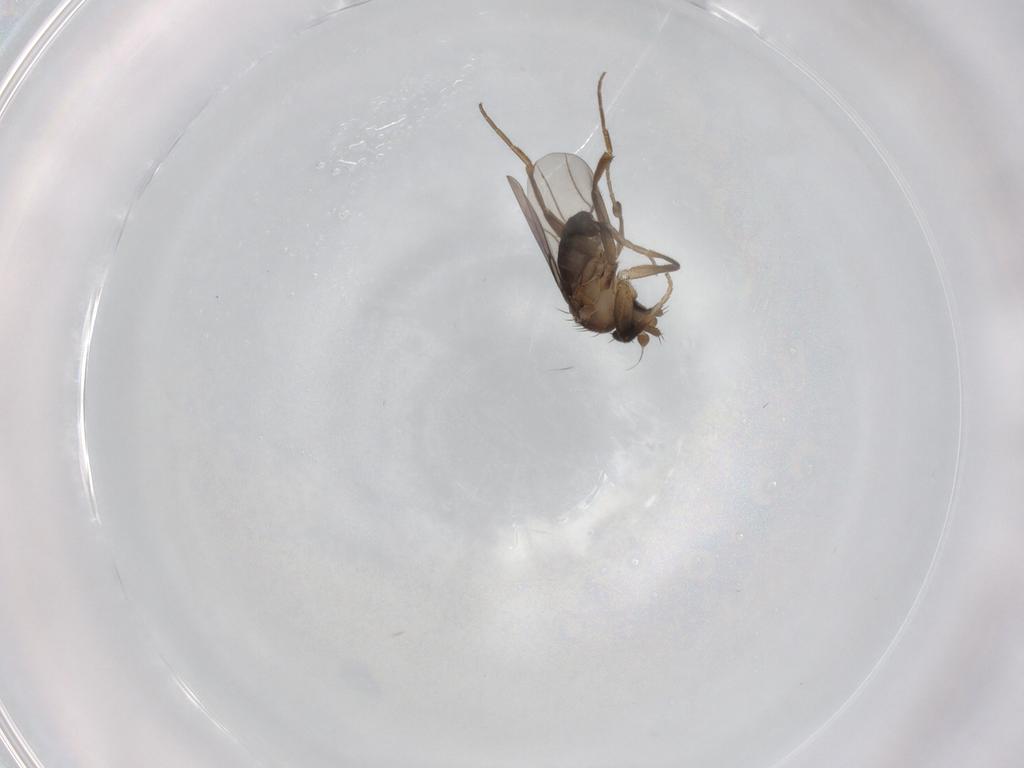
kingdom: Animalia
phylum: Arthropoda
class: Insecta
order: Diptera
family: Phoridae
